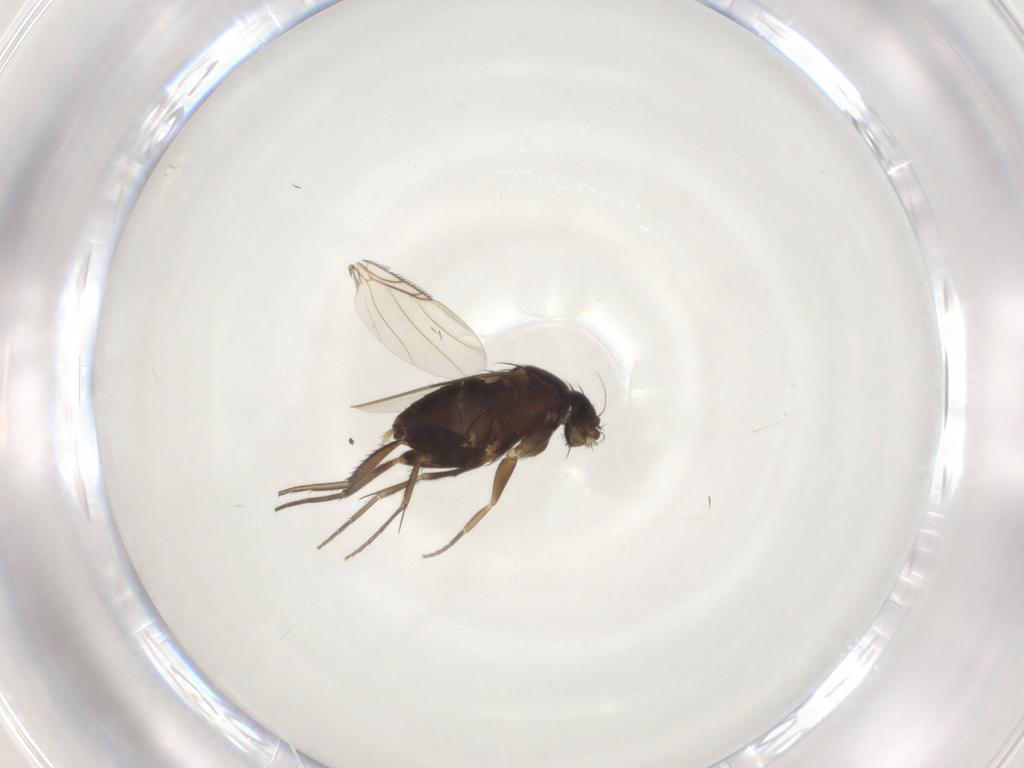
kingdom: Animalia
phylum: Arthropoda
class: Insecta
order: Diptera
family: Phoridae
